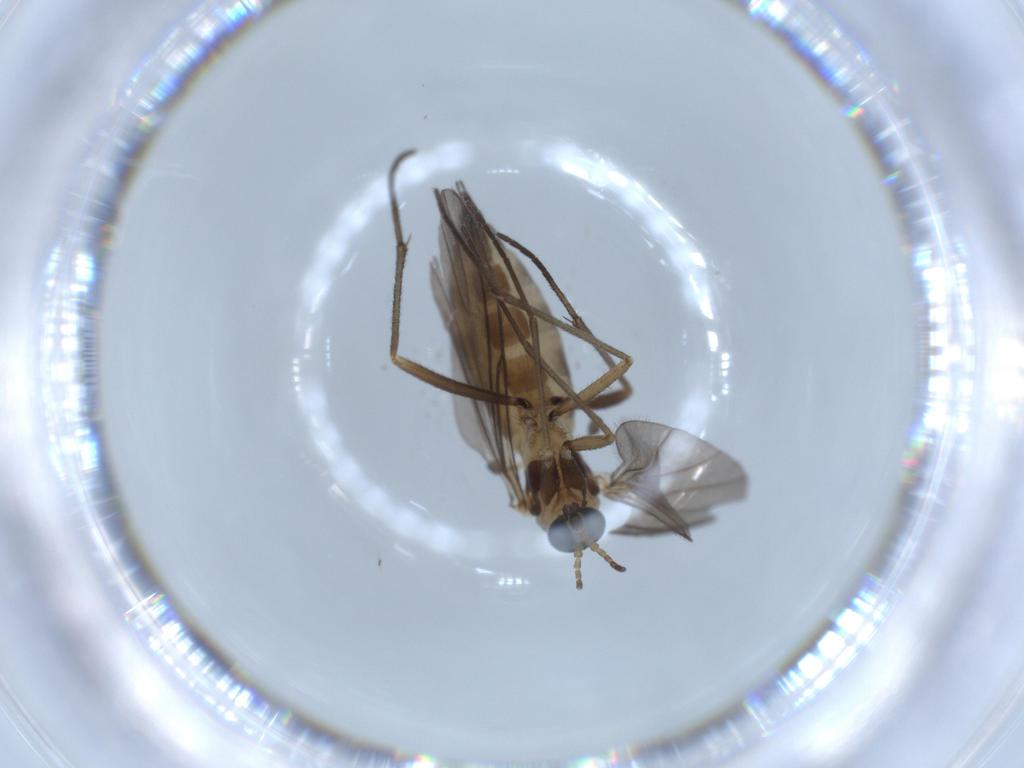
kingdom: Animalia
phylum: Arthropoda
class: Insecta
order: Diptera
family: Sciaridae
